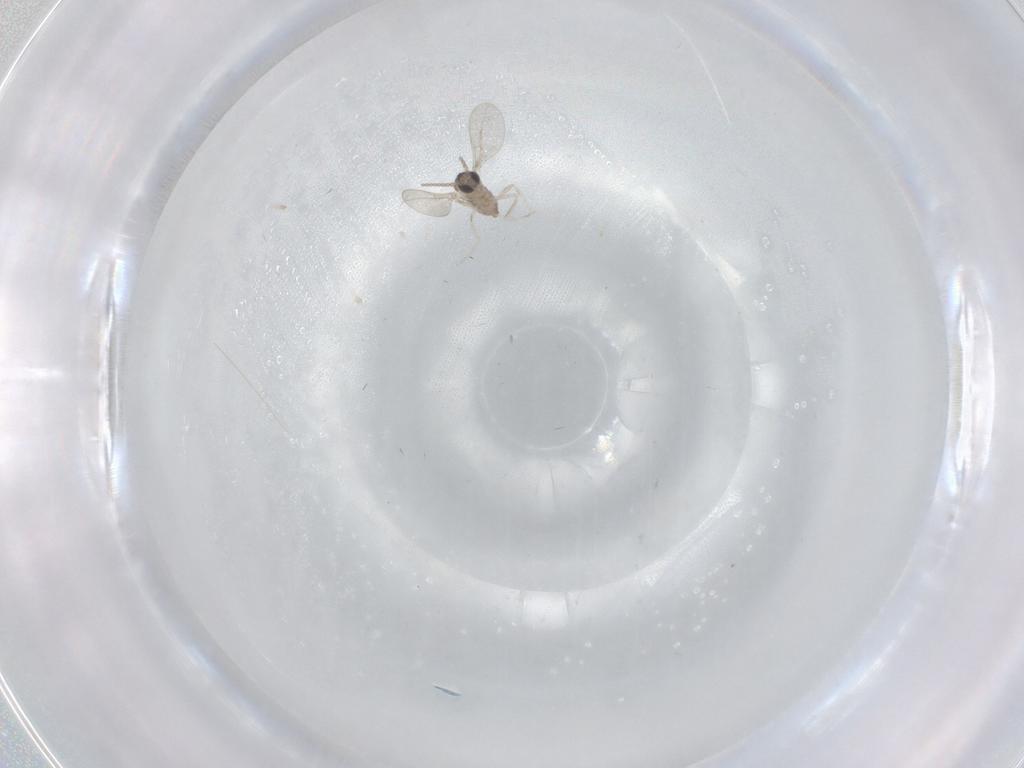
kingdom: Animalia
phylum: Arthropoda
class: Insecta
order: Diptera
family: Cecidomyiidae
